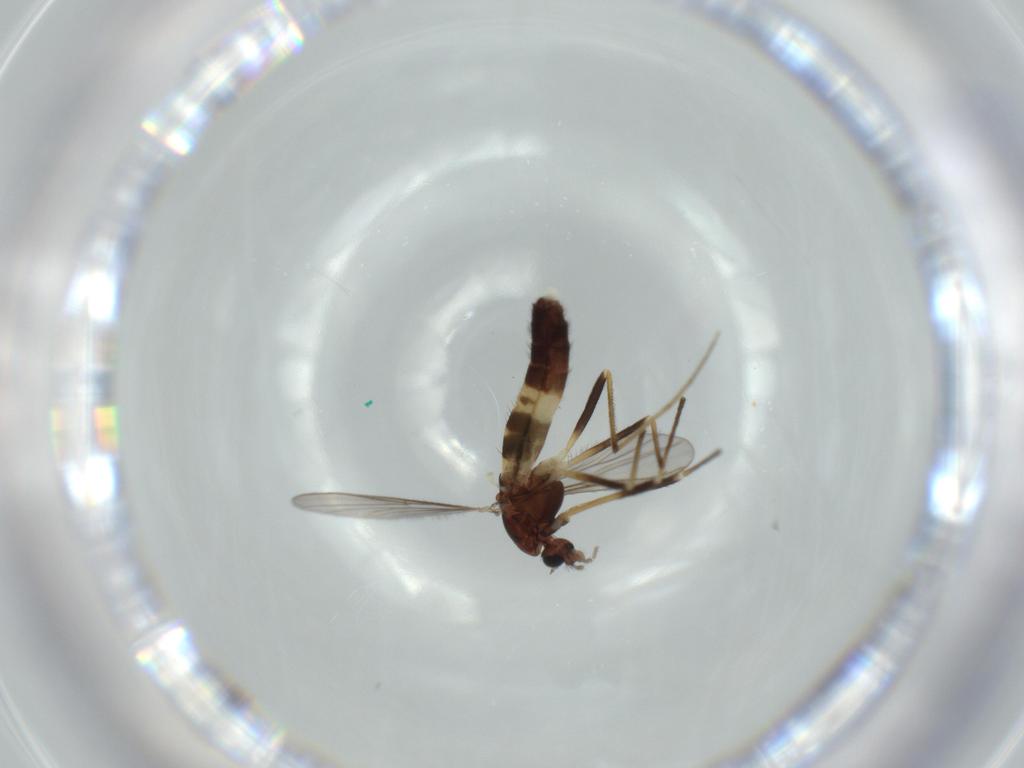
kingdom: Animalia
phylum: Arthropoda
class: Insecta
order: Diptera
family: Chironomidae
